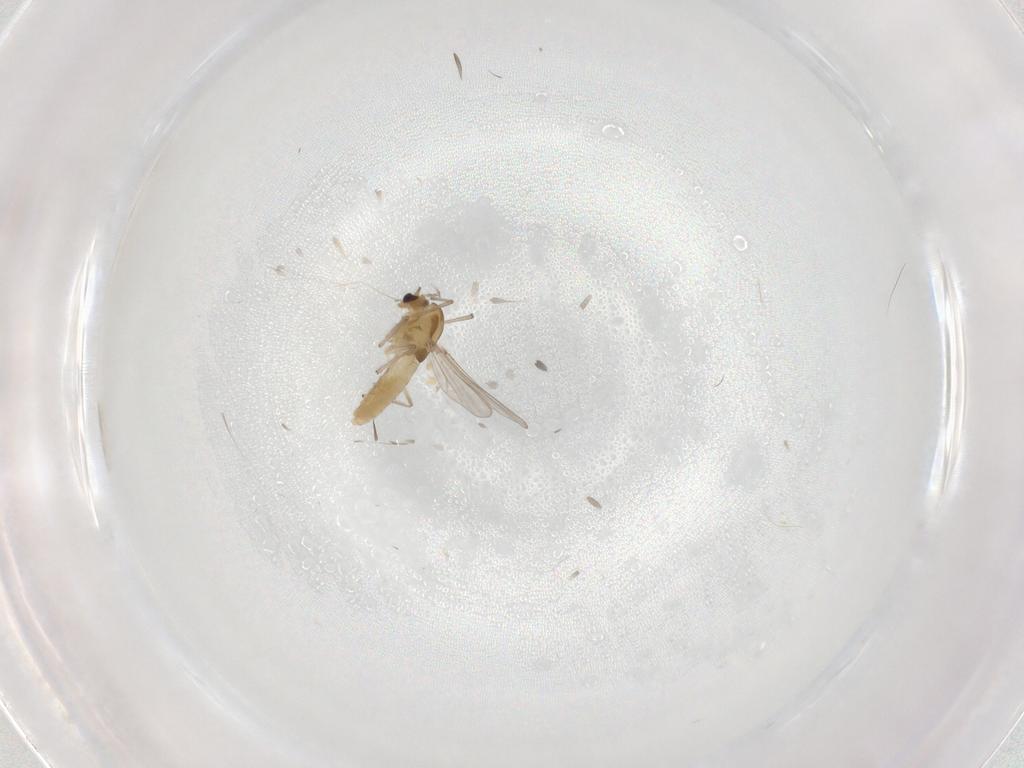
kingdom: Animalia
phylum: Arthropoda
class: Insecta
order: Diptera
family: Chironomidae
